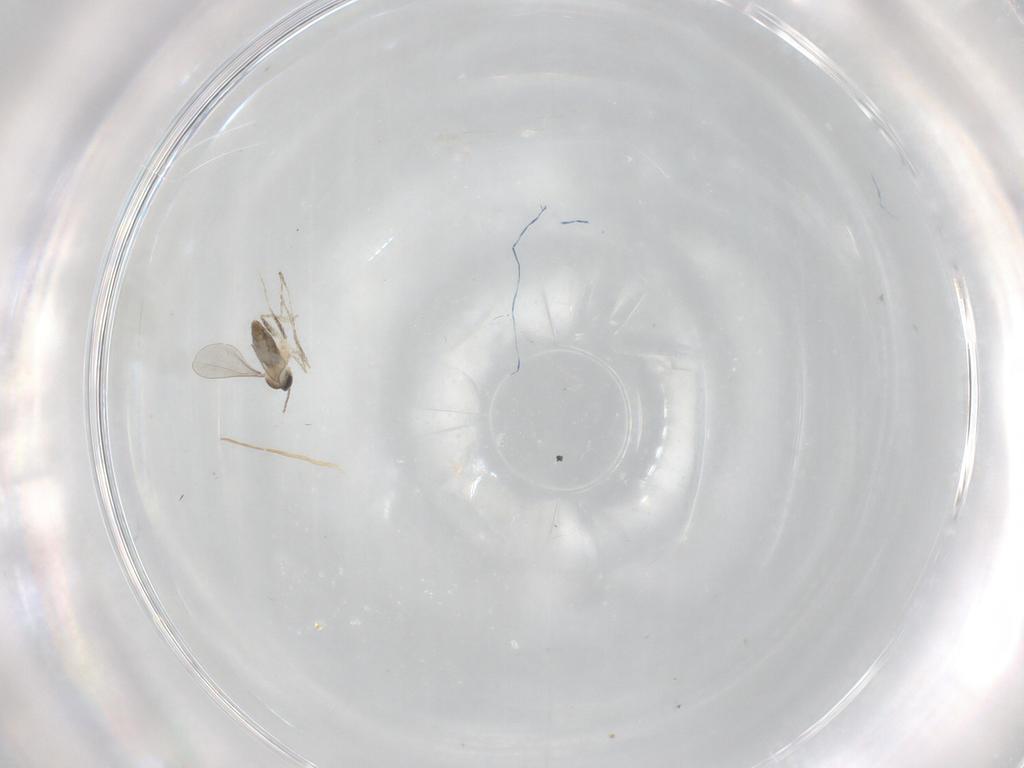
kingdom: Animalia
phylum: Arthropoda
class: Insecta
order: Diptera
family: Cecidomyiidae
